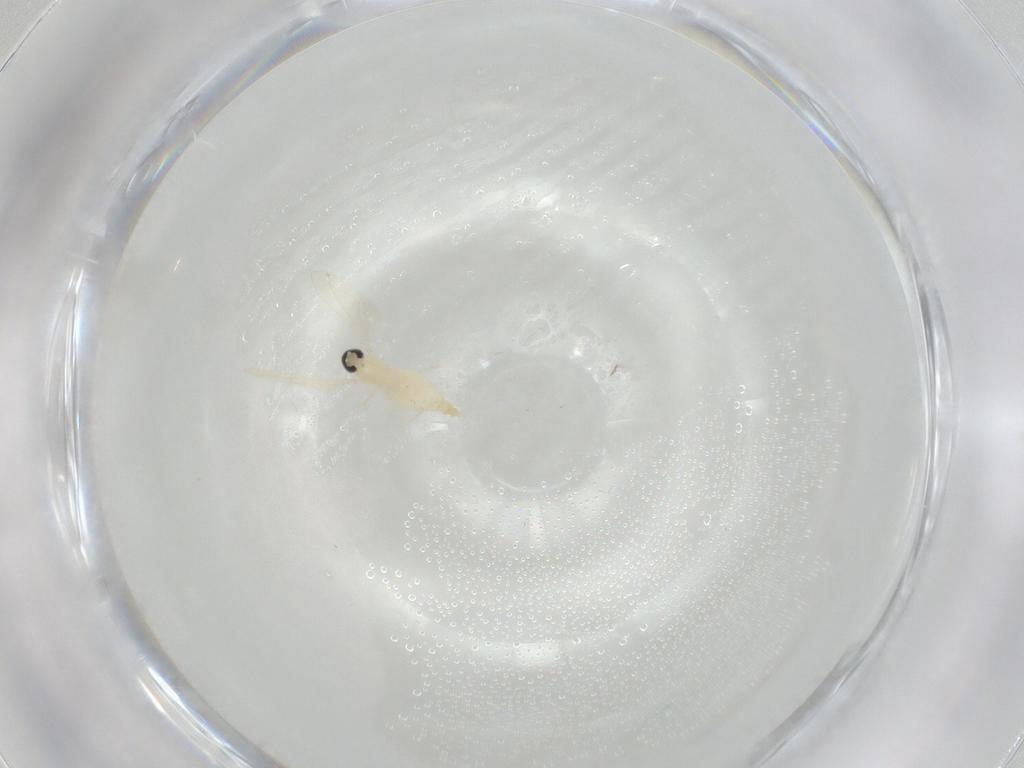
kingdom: Animalia
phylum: Arthropoda
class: Insecta
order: Diptera
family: Cecidomyiidae
